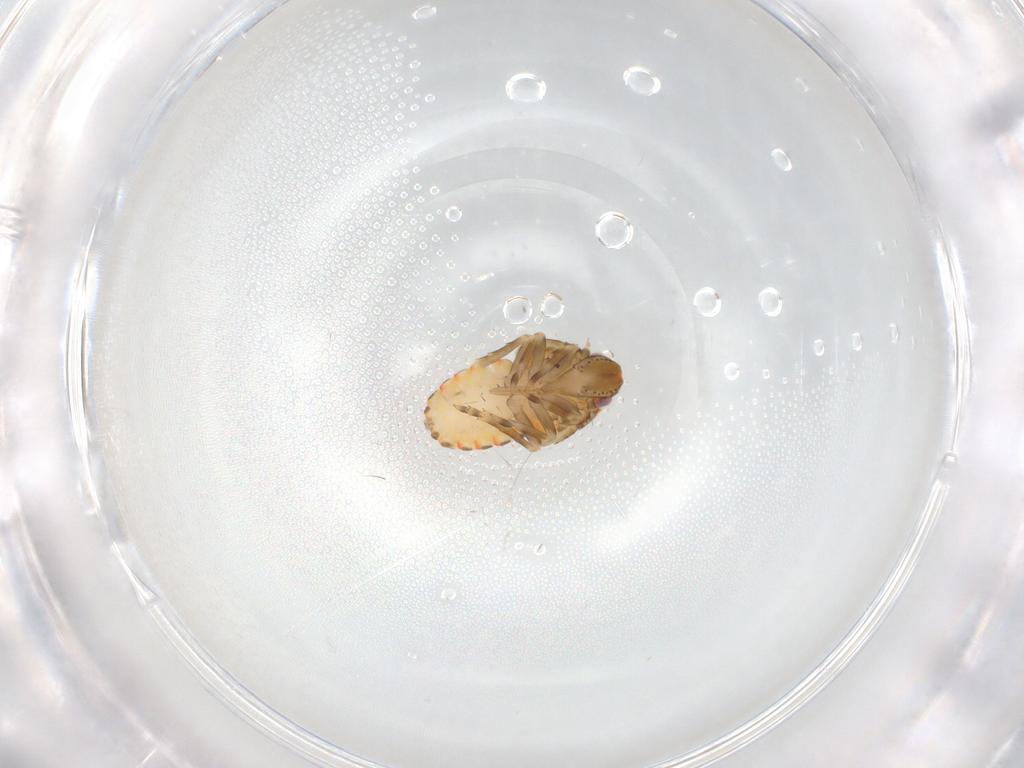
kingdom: Animalia
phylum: Arthropoda
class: Insecta
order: Hemiptera
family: Flatidae
